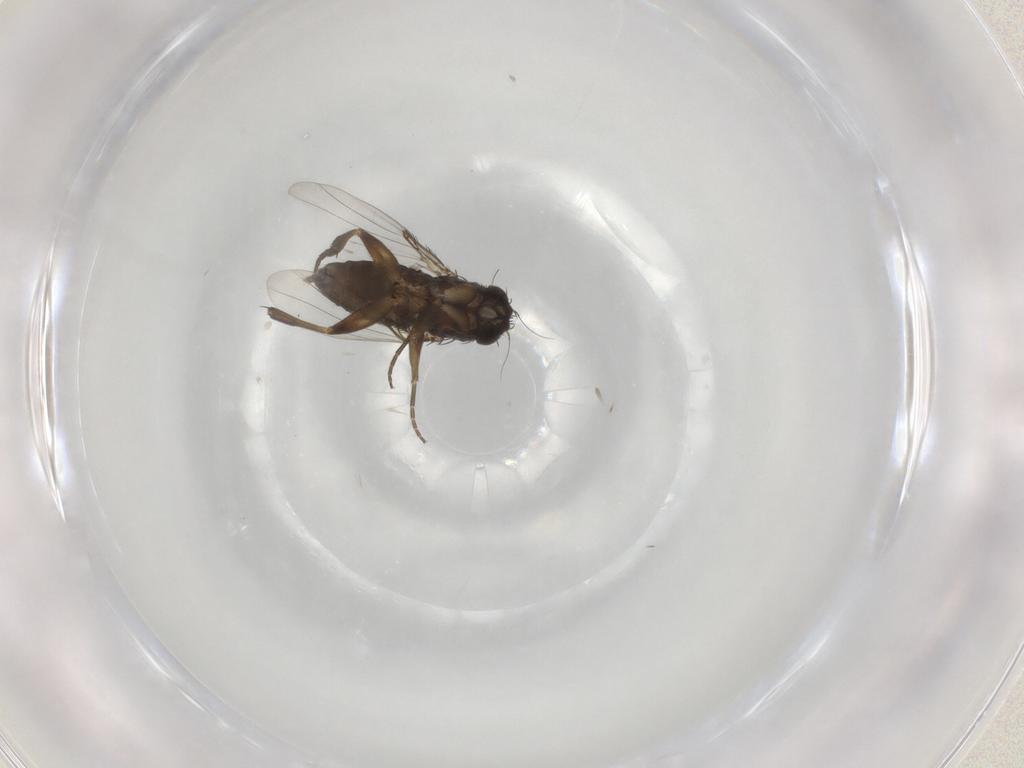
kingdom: Animalia
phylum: Arthropoda
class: Insecta
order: Diptera
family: Phoridae
